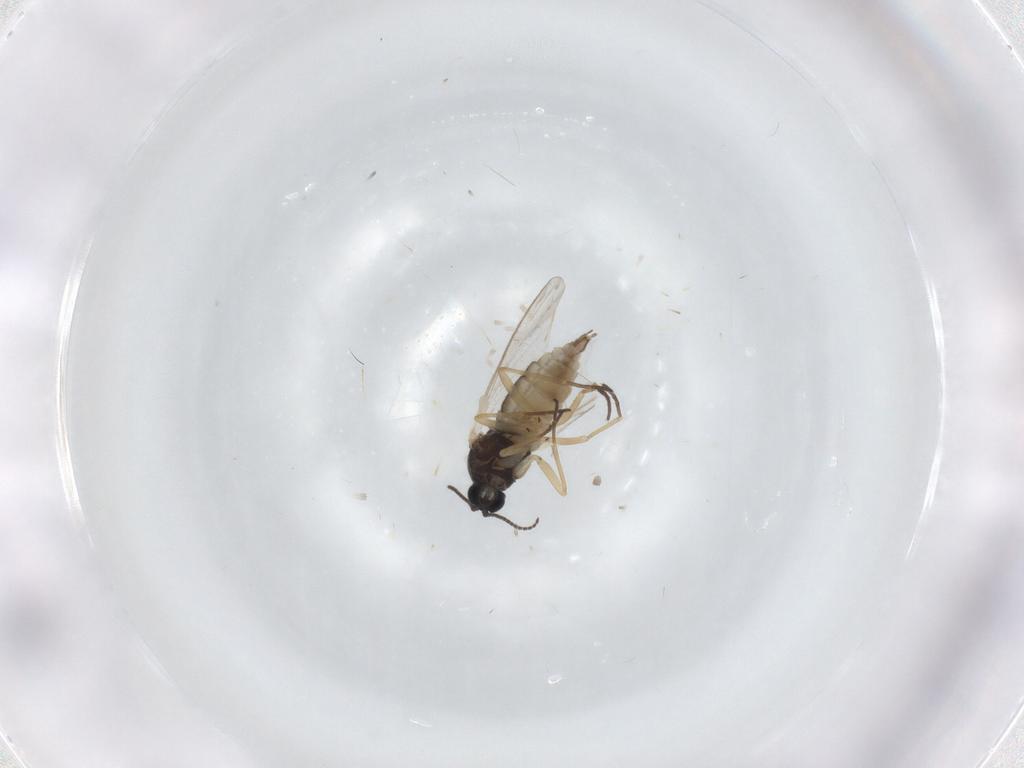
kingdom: Animalia
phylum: Arthropoda
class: Insecta
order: Diptera
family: Sciaridae
